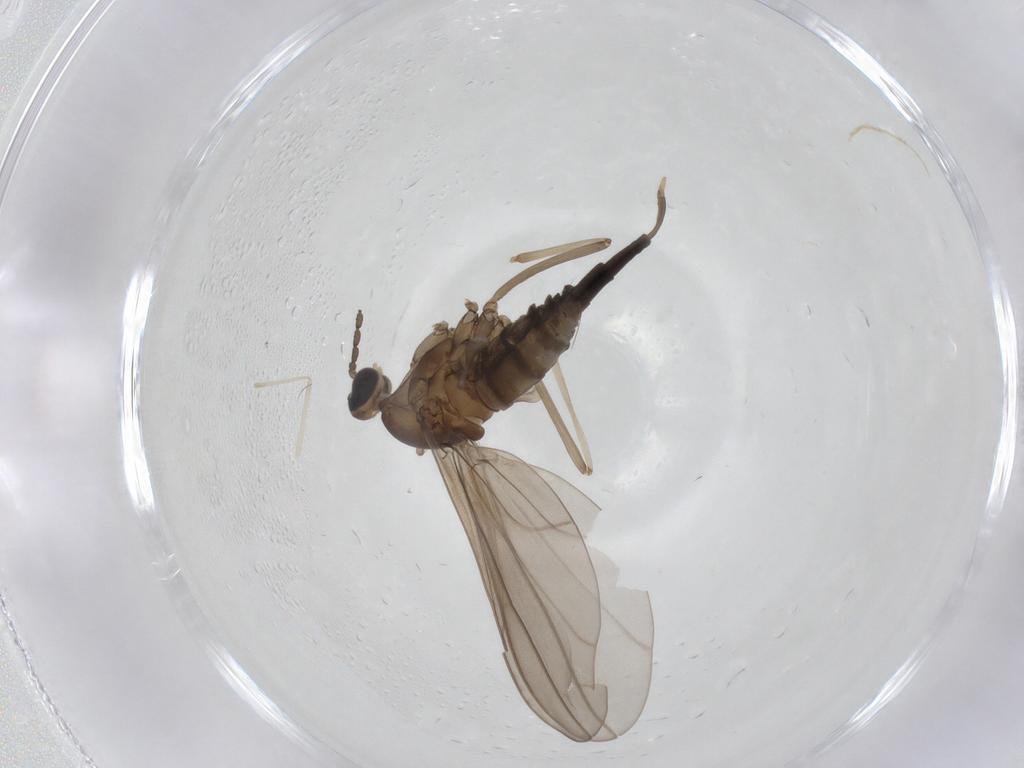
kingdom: Animalia
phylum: Arthropoda
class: Insecta
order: Diptera
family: Cecidomyiidae
